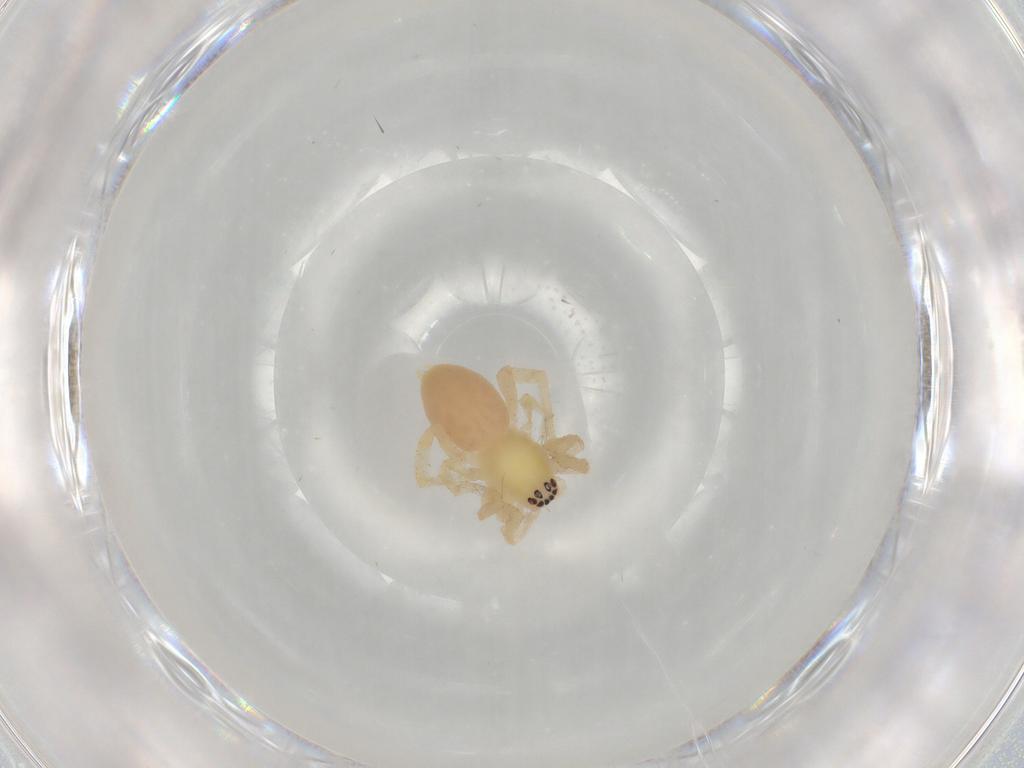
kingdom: Animalia
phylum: Arthropoda
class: Arachnida
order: Araneae
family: Anyphaenidae
